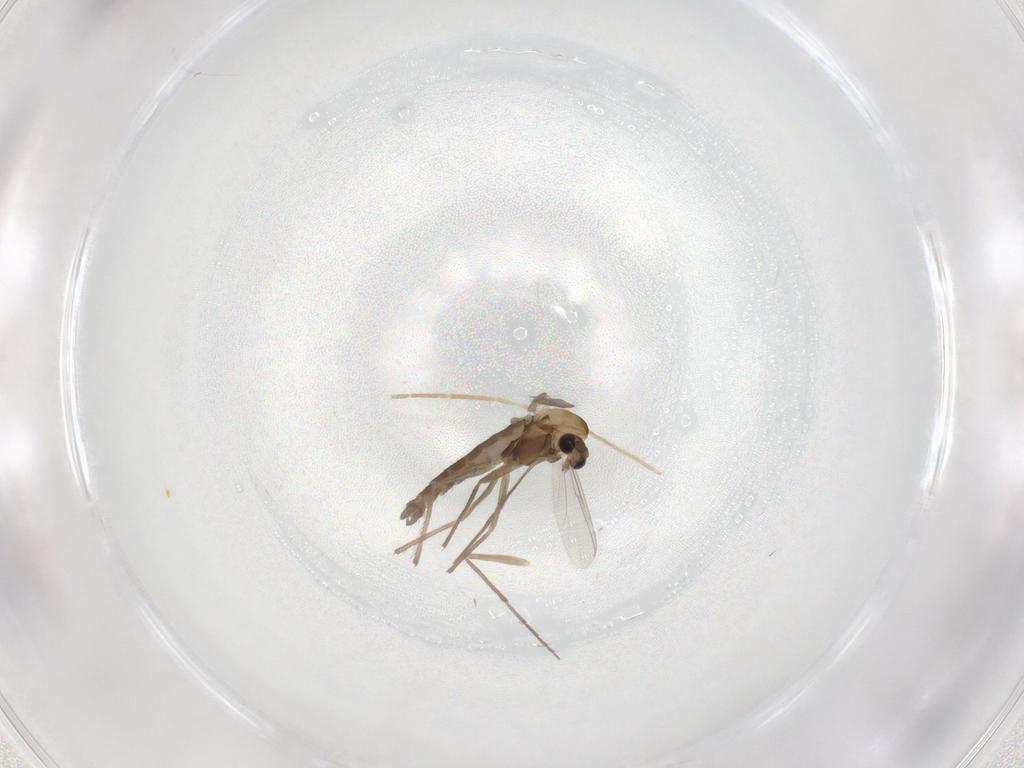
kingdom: Animalia
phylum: Arthropoda
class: Insecta
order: Diptera
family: Chironomidae
